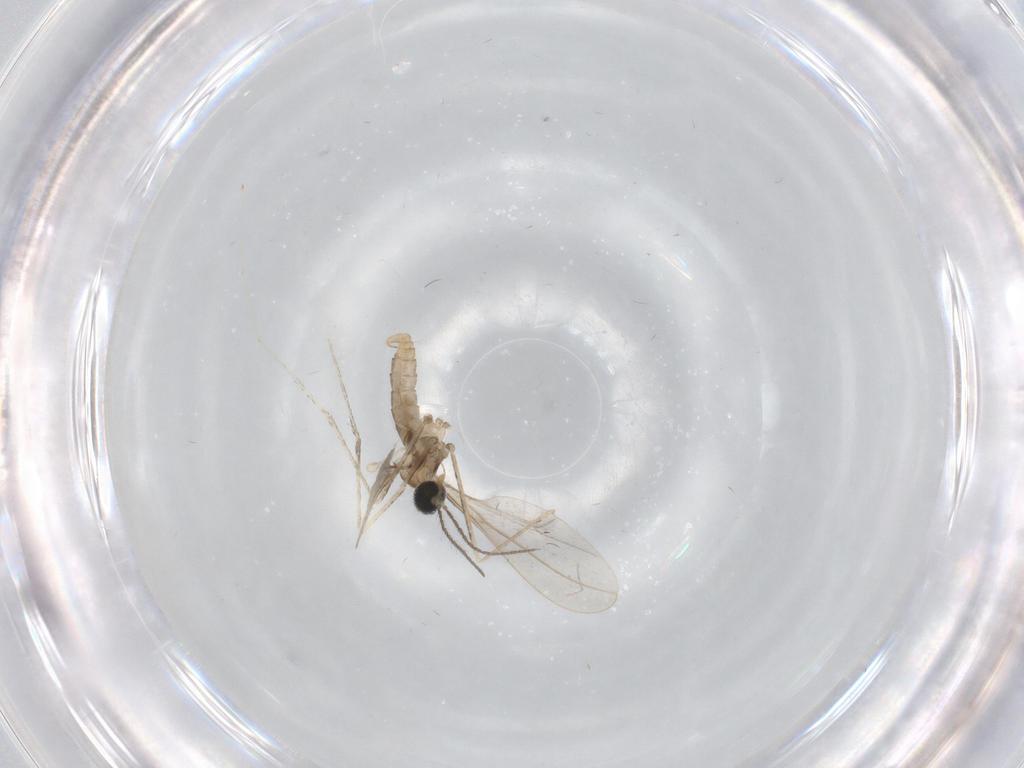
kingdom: Animalia
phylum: Arthropoda
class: Insecta
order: Diptera
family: Cecidomyiidae
